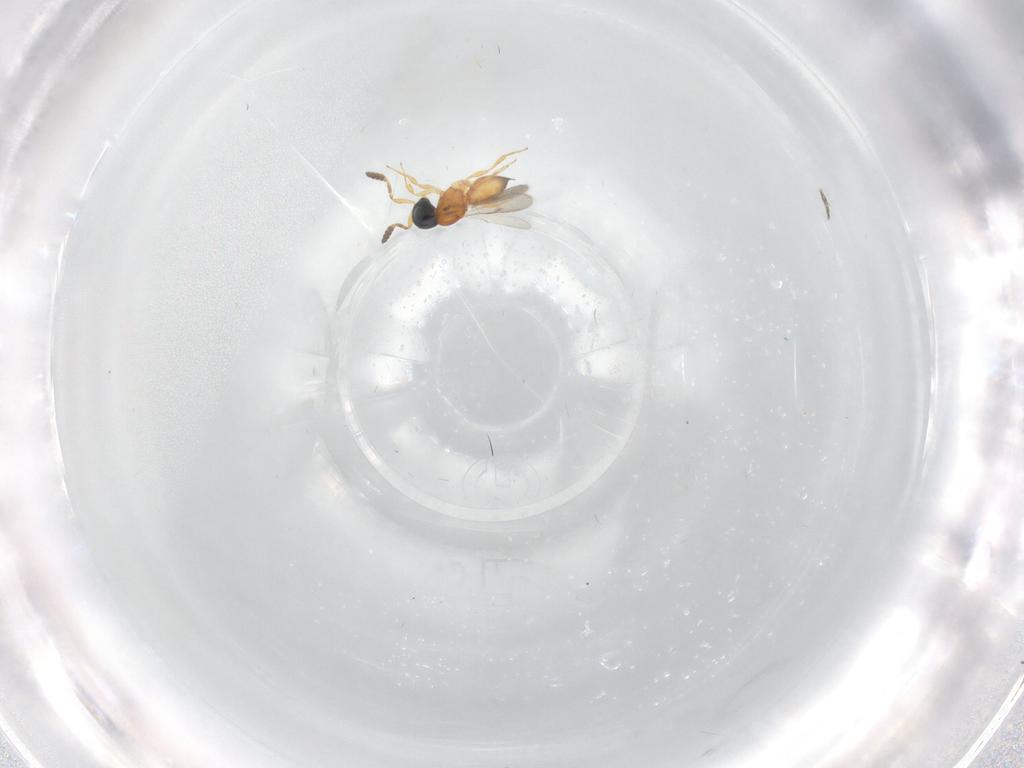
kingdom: Animalia
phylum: Arthropoda
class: Insecta
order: Hymenoptera
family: Scelionidae
